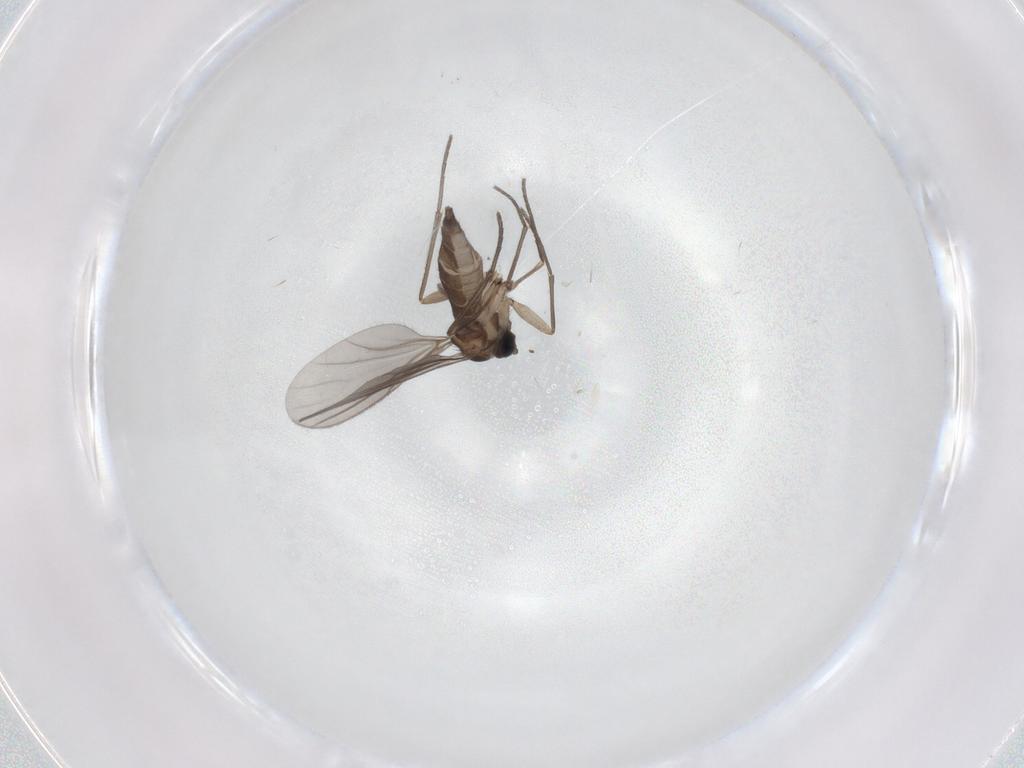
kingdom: Animalia
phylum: Arthropoda
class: Insecta
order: Diptera
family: Sciaridae
